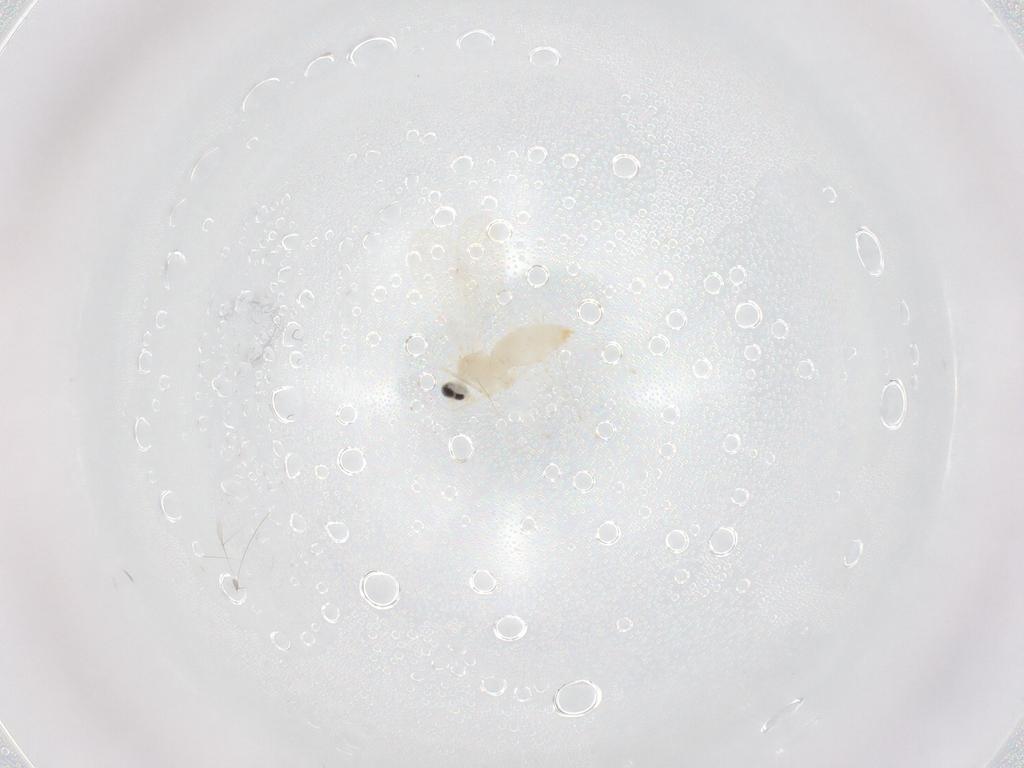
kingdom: Animalia
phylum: Arthropoda
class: Insecta
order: Diptera
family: Cecidomyiidae
